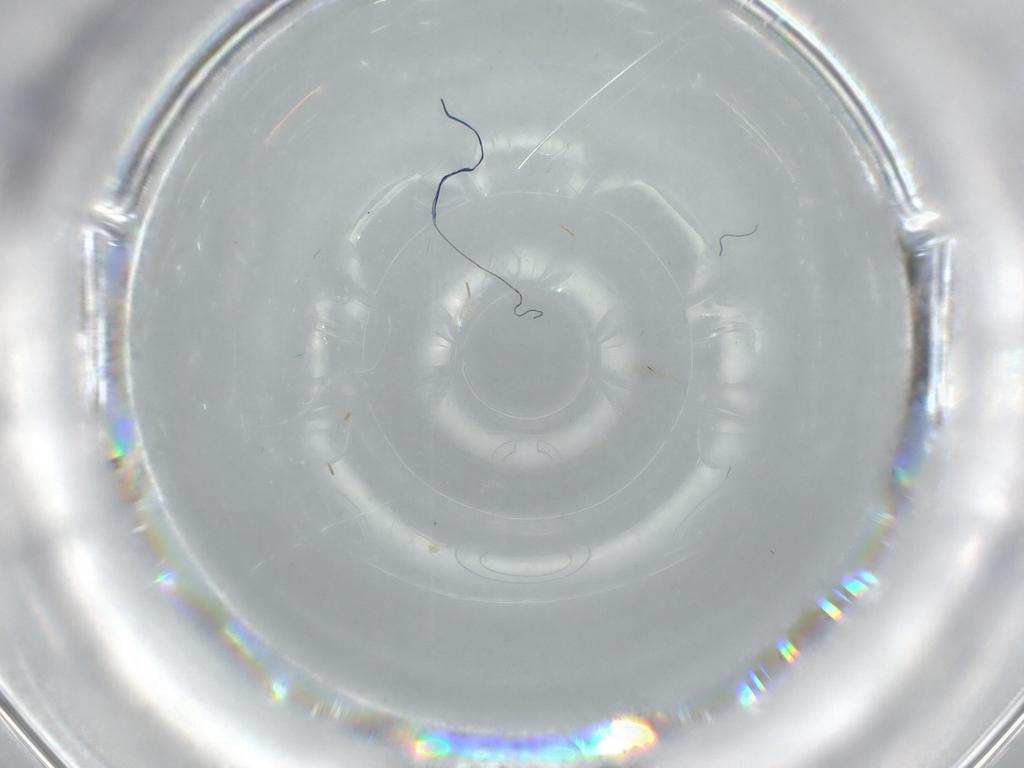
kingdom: Animalia
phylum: Arthropoda
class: Insecta
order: Diptera
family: Cecidomyiidae
